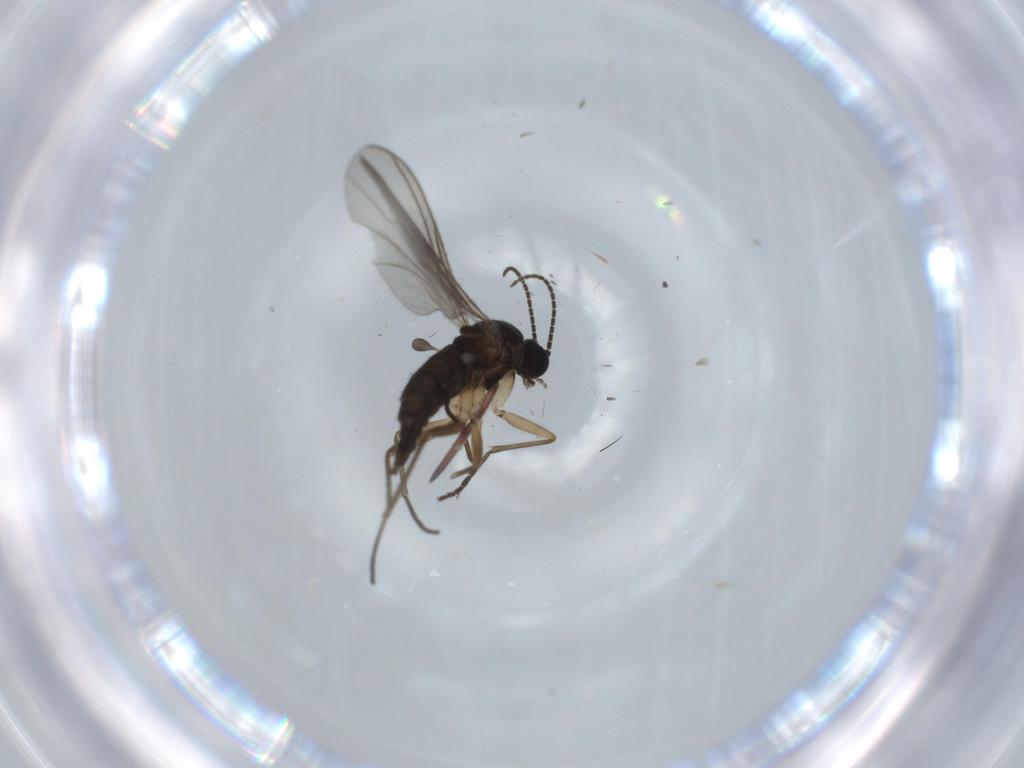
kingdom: Animalia
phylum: Arthropoda
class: Insecta
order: Diptera
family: Sciaridae
